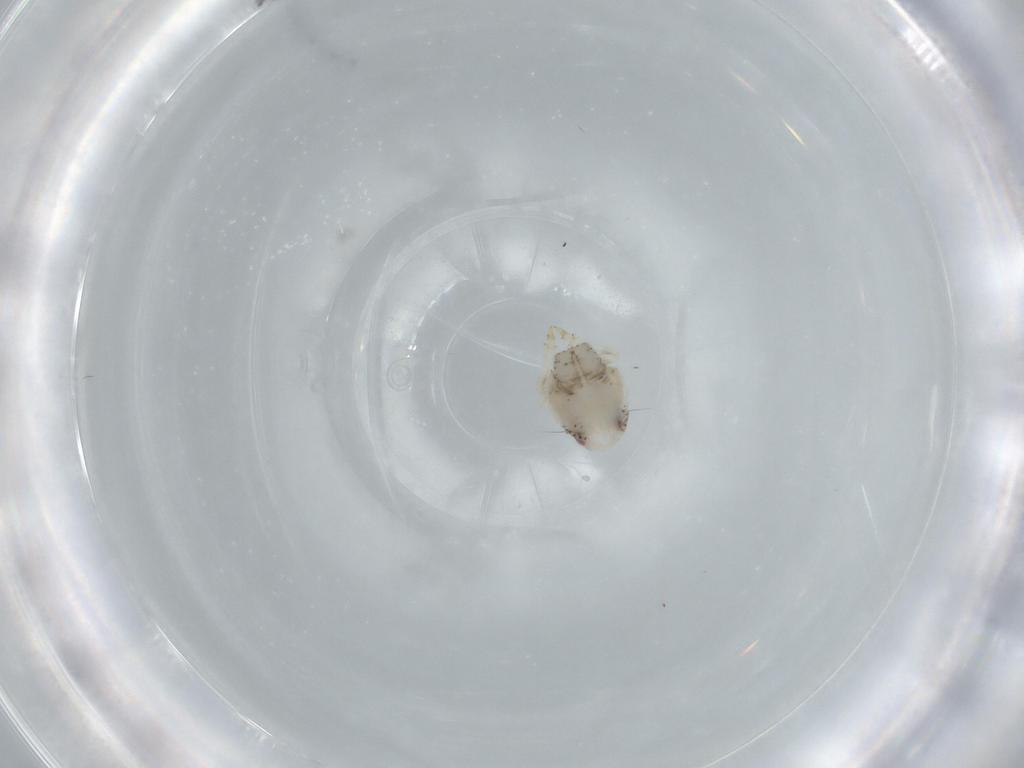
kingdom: Animalia
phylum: Arthropoda
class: Insecta
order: Hemiptera
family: Acanaloniidae
